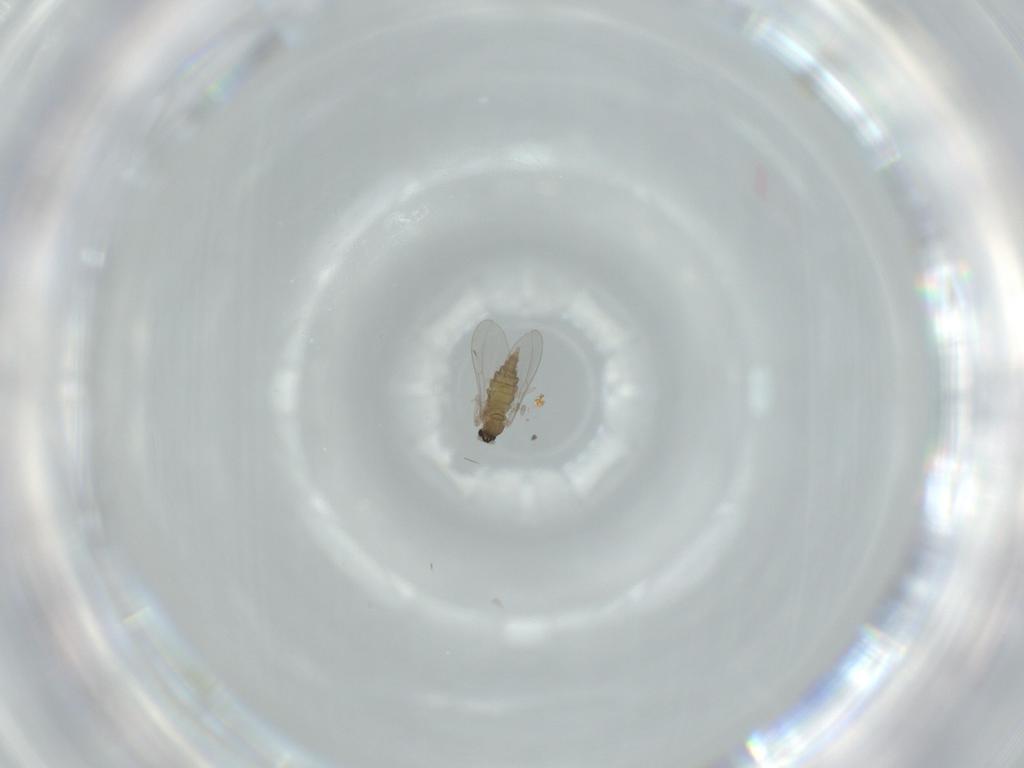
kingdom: Animalia
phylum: Arthropoda
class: Insecta
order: Diptera
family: Cecidomyiidae
